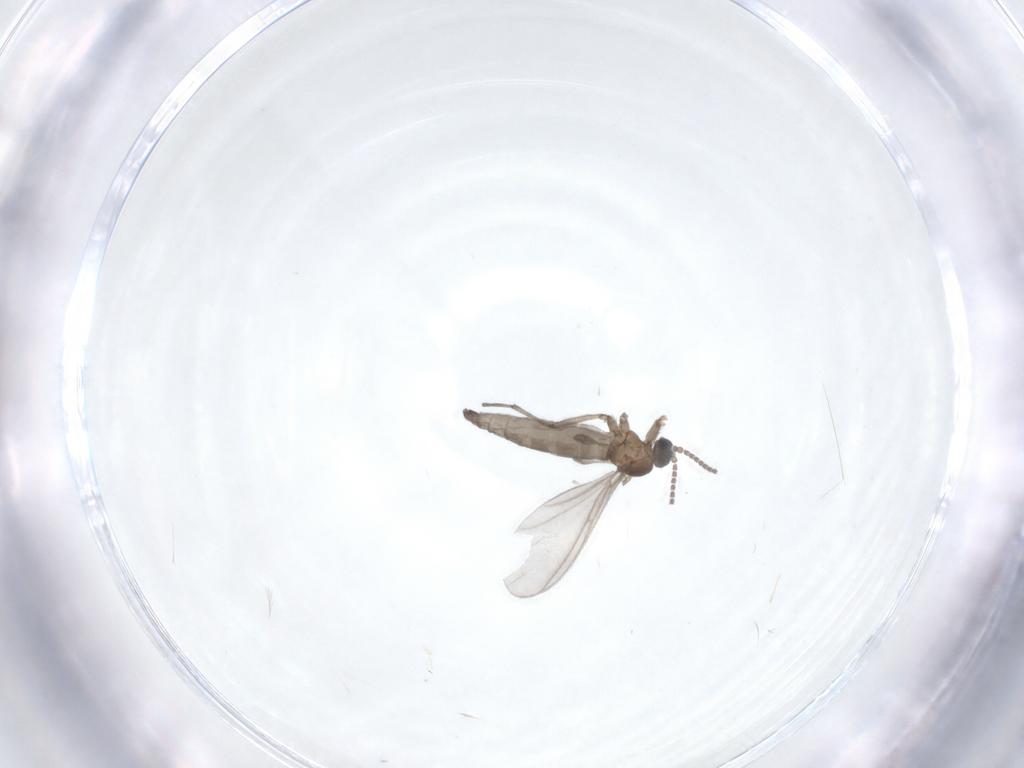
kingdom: Animalia
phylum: Arthropoda
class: Insecta
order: Diptera
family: Sciaridae
